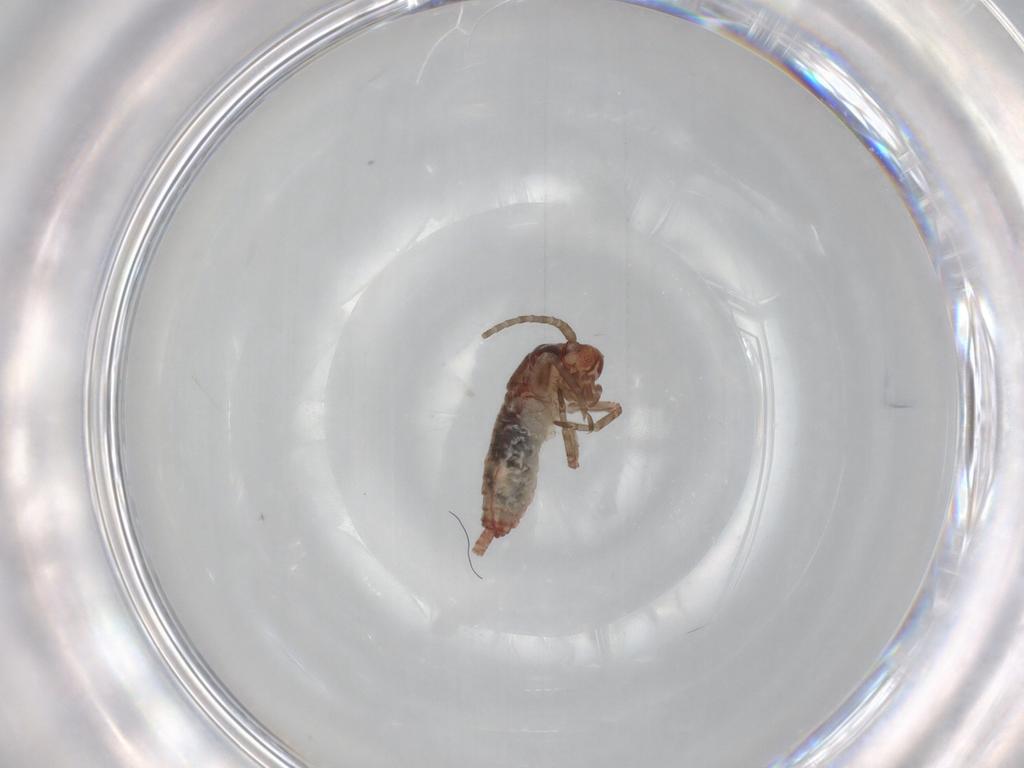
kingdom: Animalia
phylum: Arthropoda
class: Insecta
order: Orthoptera
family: Mogoplistidae
